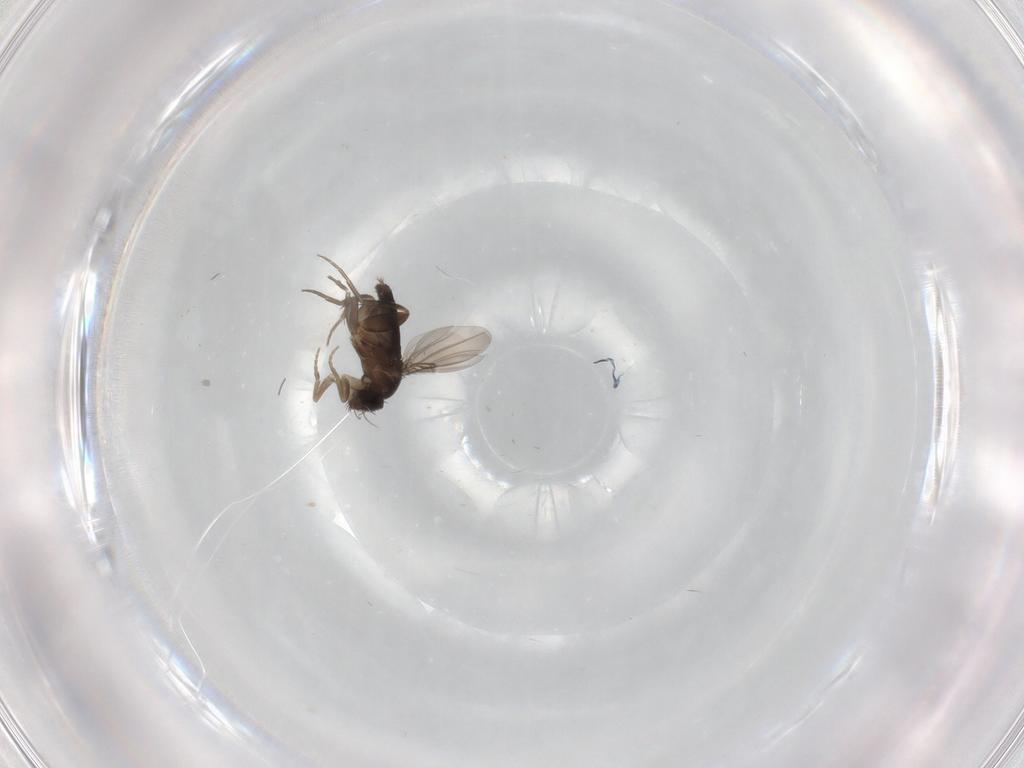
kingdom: Animalia
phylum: Arthropoda
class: Insecta
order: Diptera
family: Phoridae
